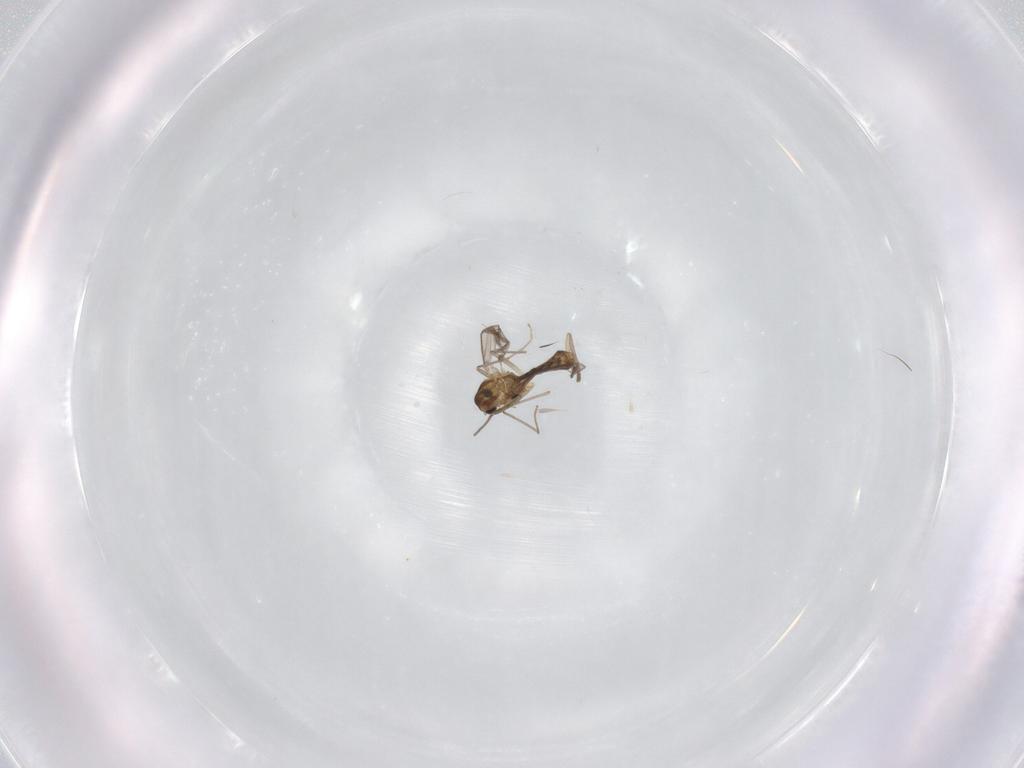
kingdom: Animalia
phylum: Arthropoda
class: Insecta
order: Diptera
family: Chironomidae
